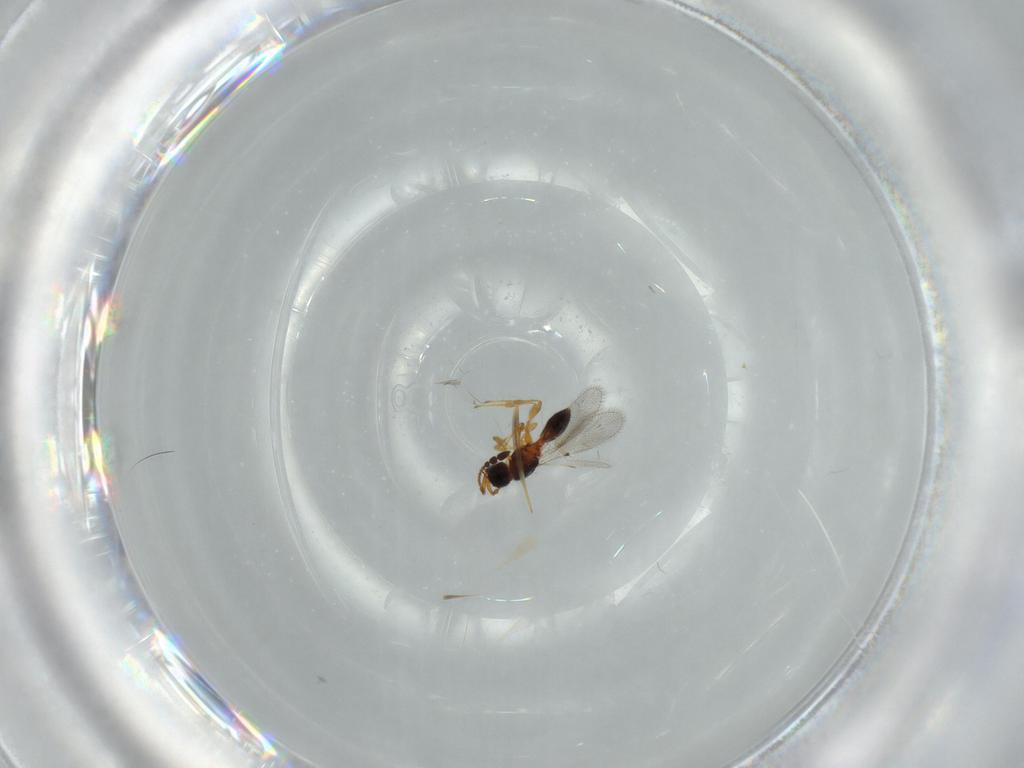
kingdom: Animalia
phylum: Arthropoda
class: Insecta
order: Hymenoptera
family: Diapriidae
